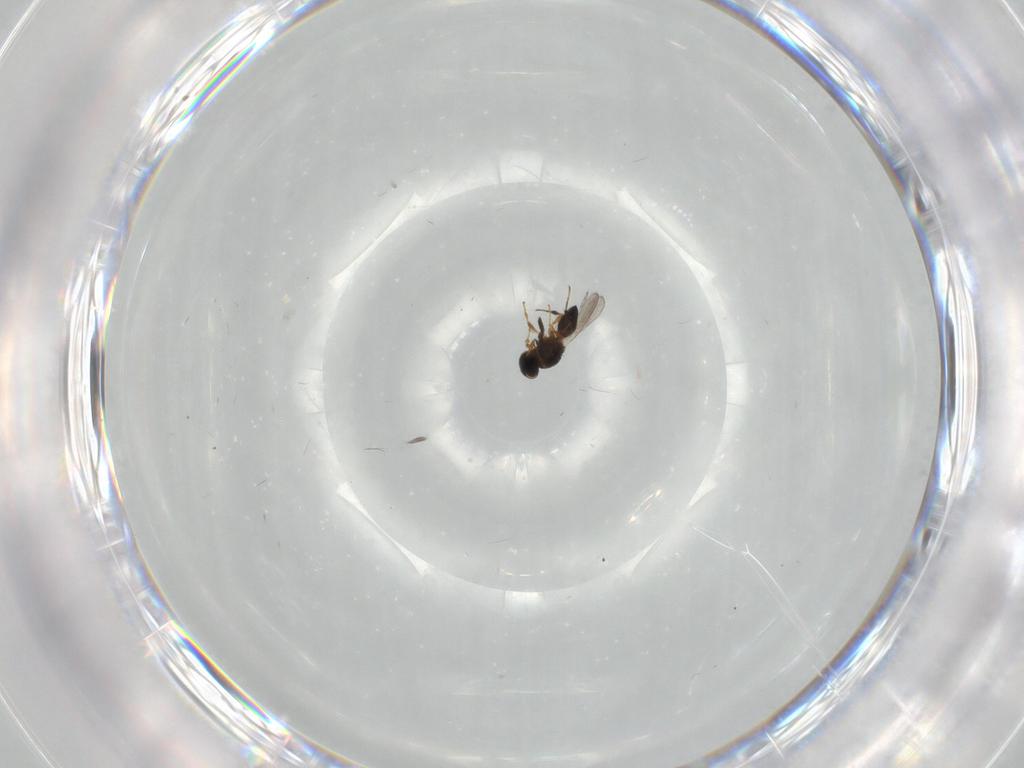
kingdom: Animalia
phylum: Arthropoda
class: Insecta
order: Hymenoptera
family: Platygastridae
